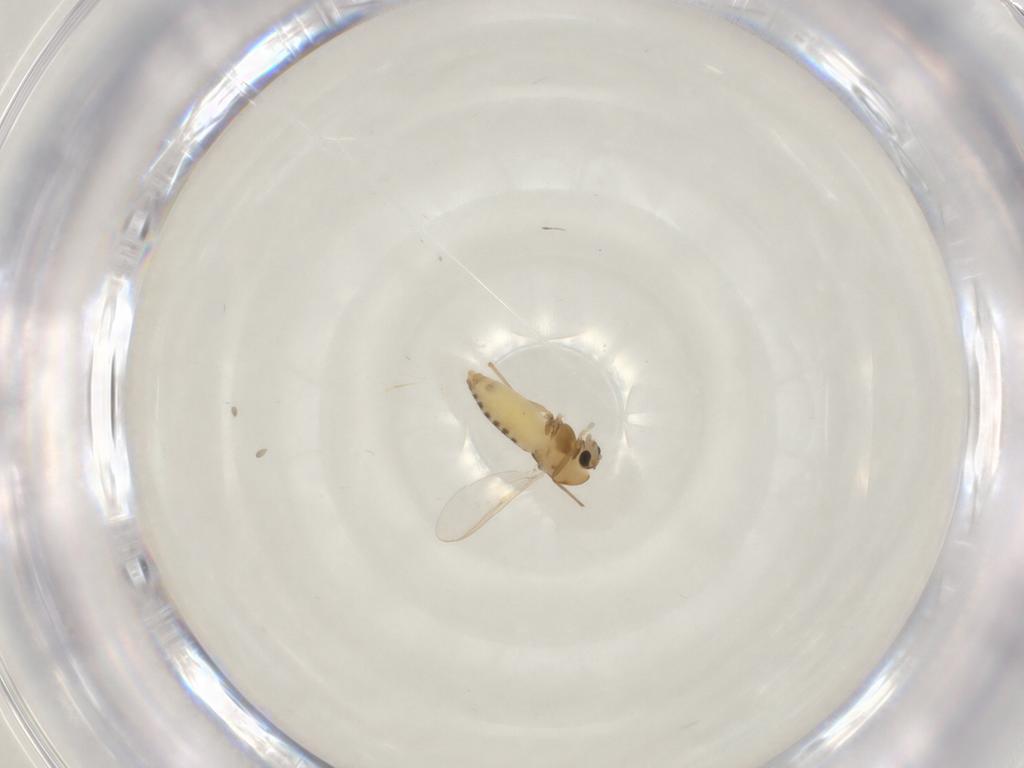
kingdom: Animalia
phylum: Arthropoda
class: Insecta
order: Diptera
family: Chironomidae
